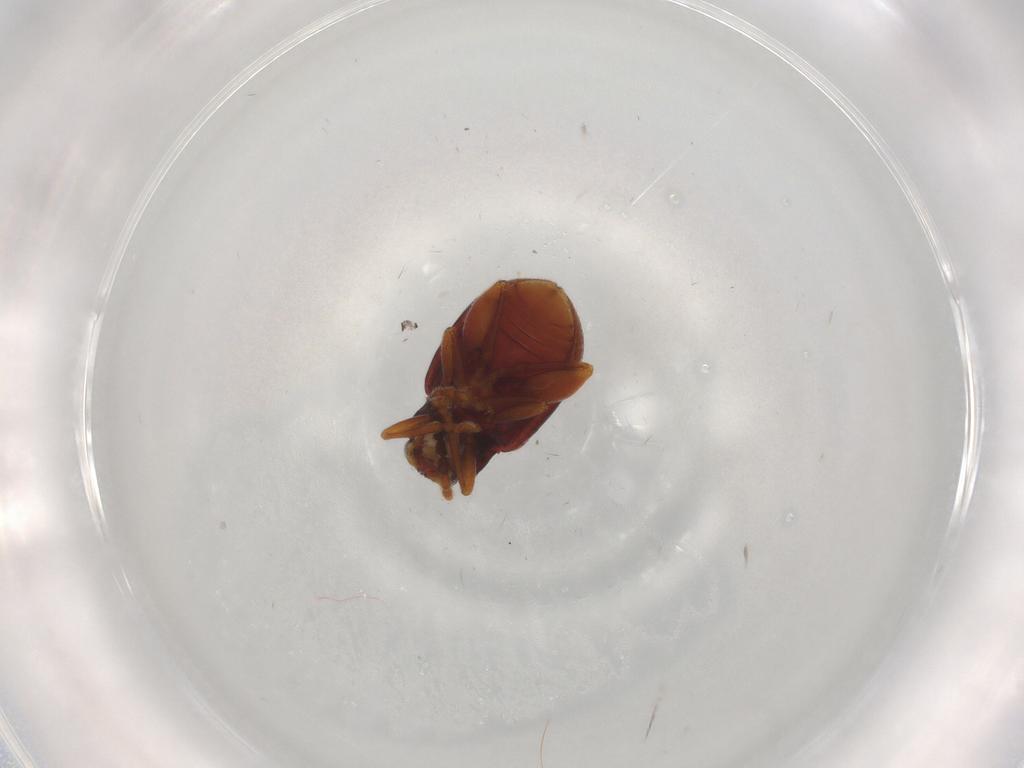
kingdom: Animalia
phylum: Arthropoda
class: Insecta
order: Coleoptera
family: Chrysomelidae
